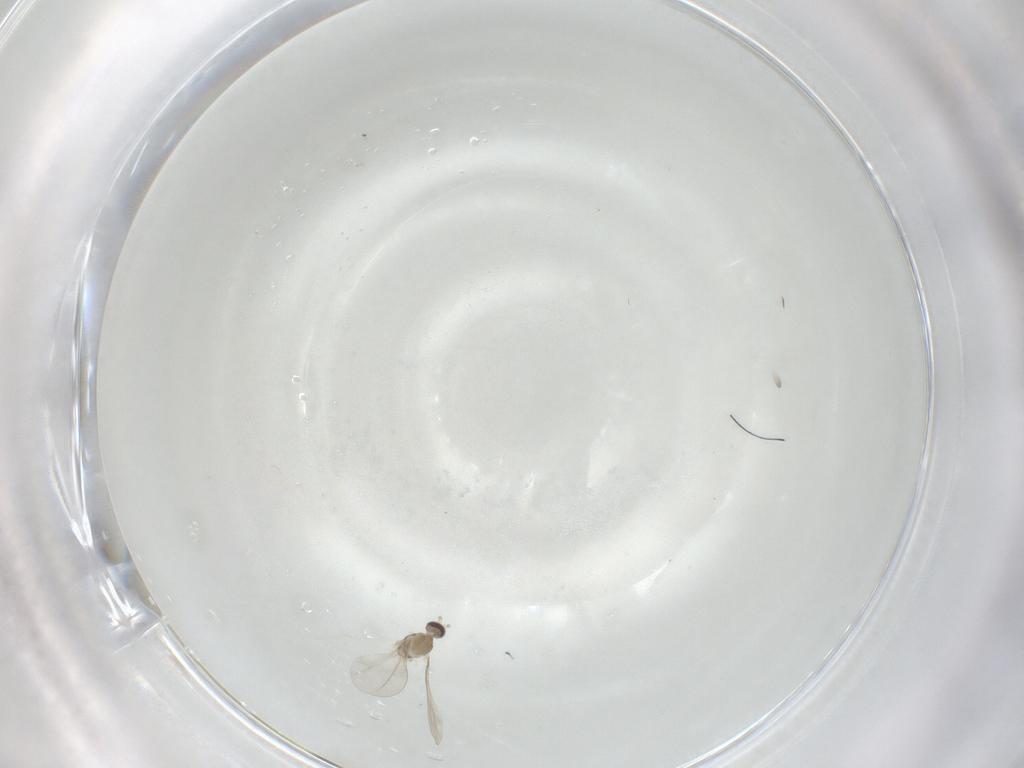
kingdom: Animalia
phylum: Arthropoda
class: Insecta
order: Diptera
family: Cecidomyiidae
